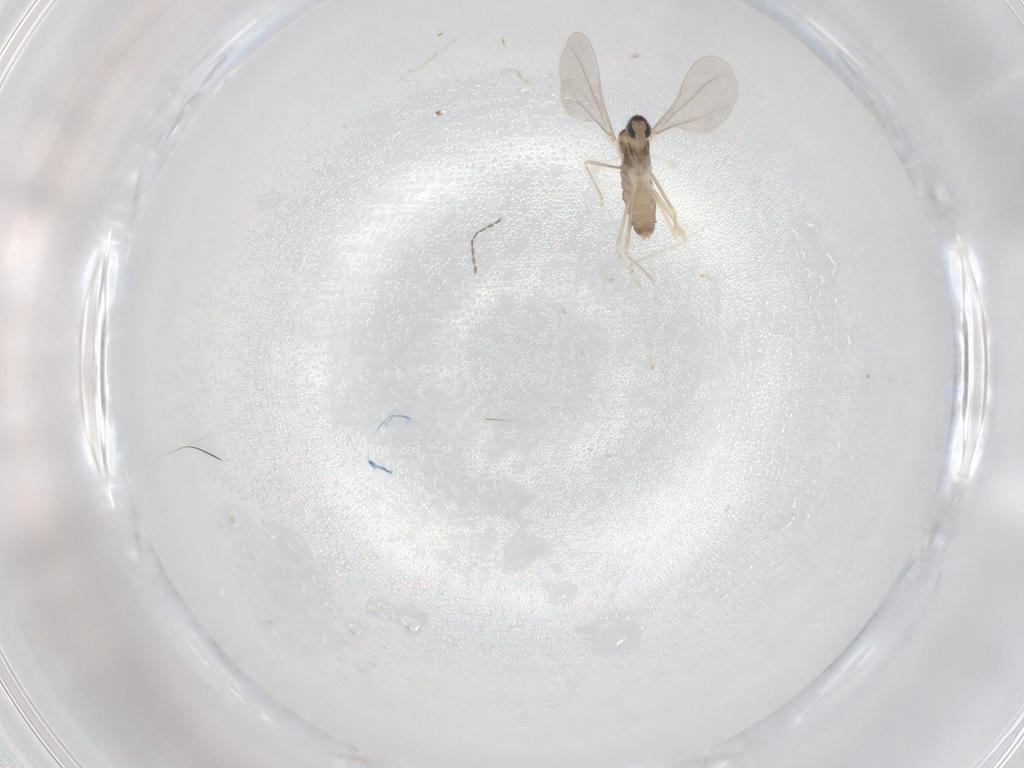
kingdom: Animalia
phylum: Arthropoda
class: Insecta
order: Diptera
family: Cecidomyiidae
